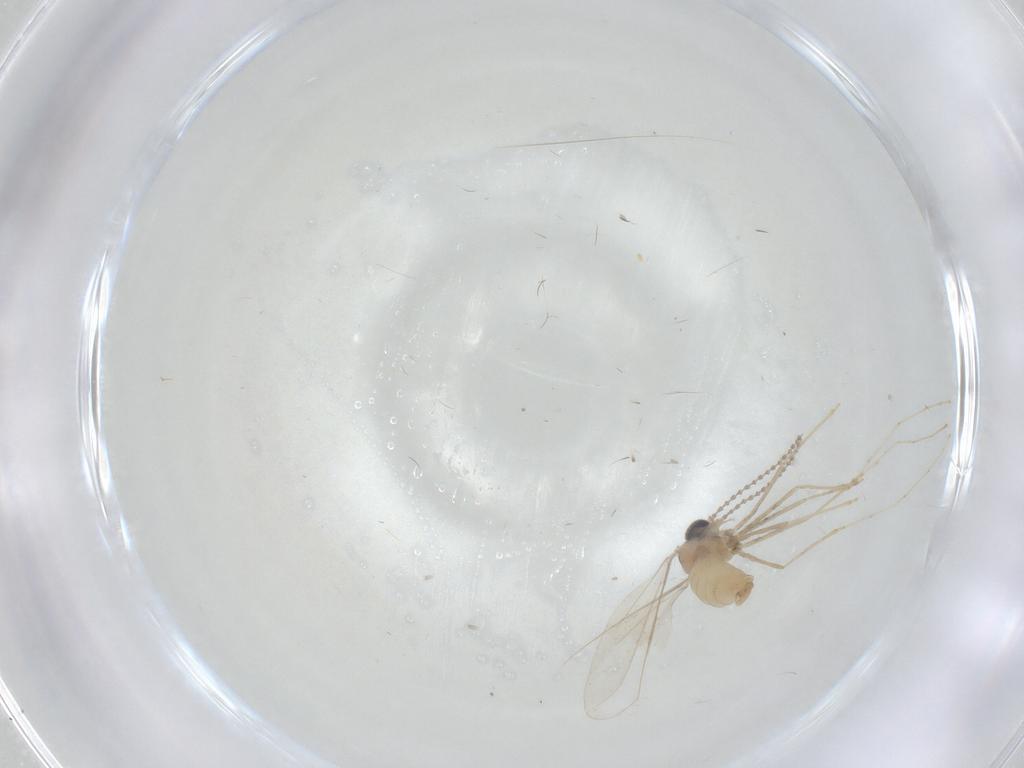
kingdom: Animalia
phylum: Arthropoda
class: Insecta
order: Diptera
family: Cecidomyiidae
